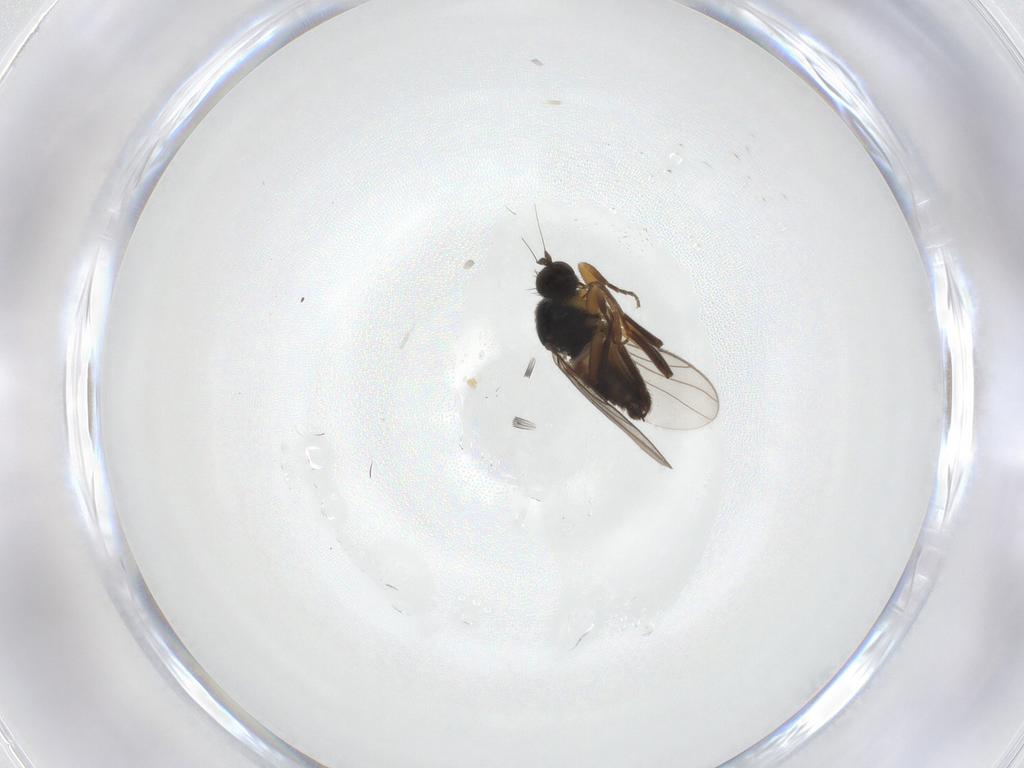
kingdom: Animalia
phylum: Arthropoda
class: Insecta
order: Diptera
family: Hybotidae
